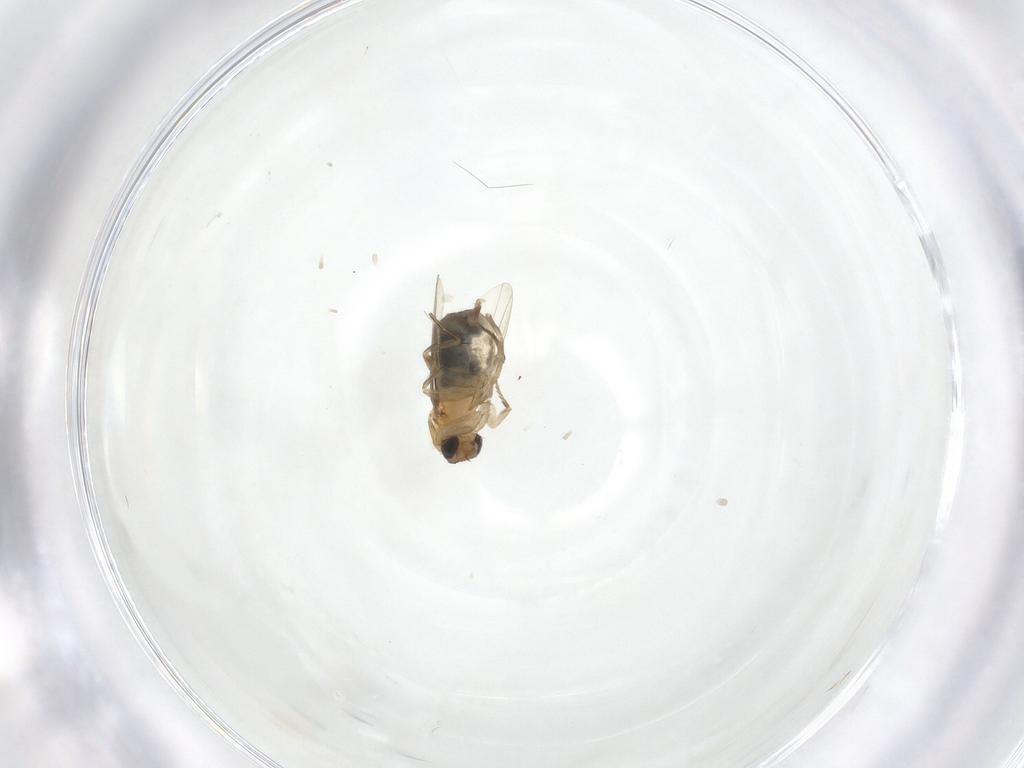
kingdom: Animalia
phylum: Arthropoda
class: Insecta
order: Diptera
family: Phoridae
